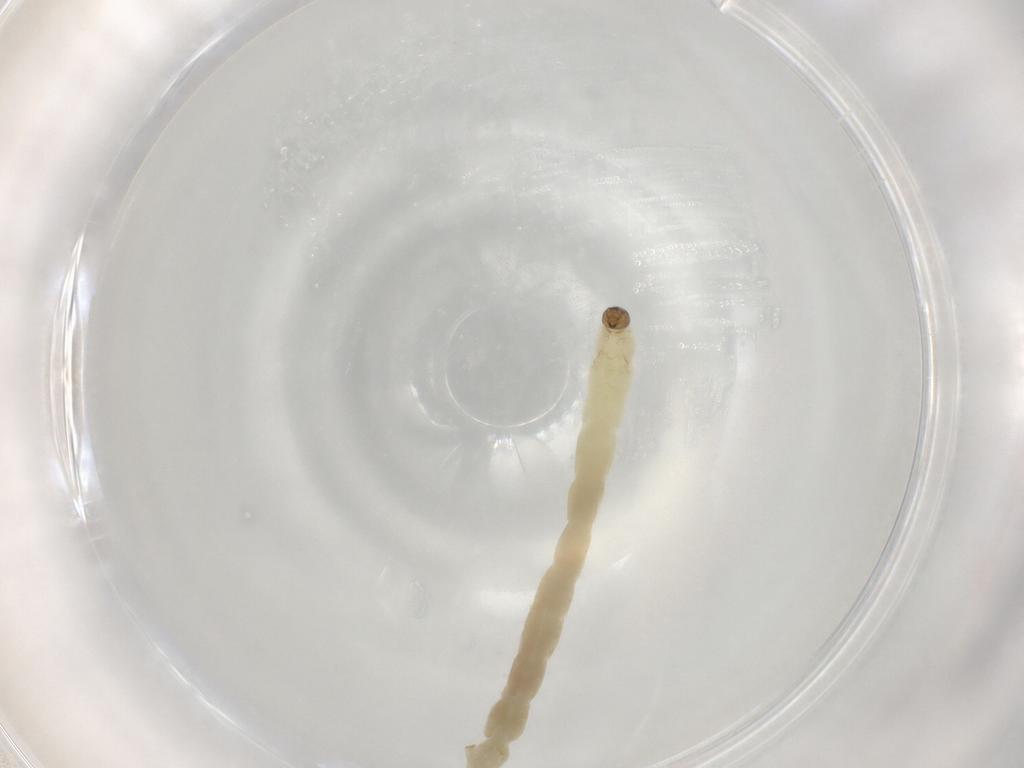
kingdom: Animalia
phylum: Arthropoda
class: Insecta
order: Diptera
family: Chironomidae
